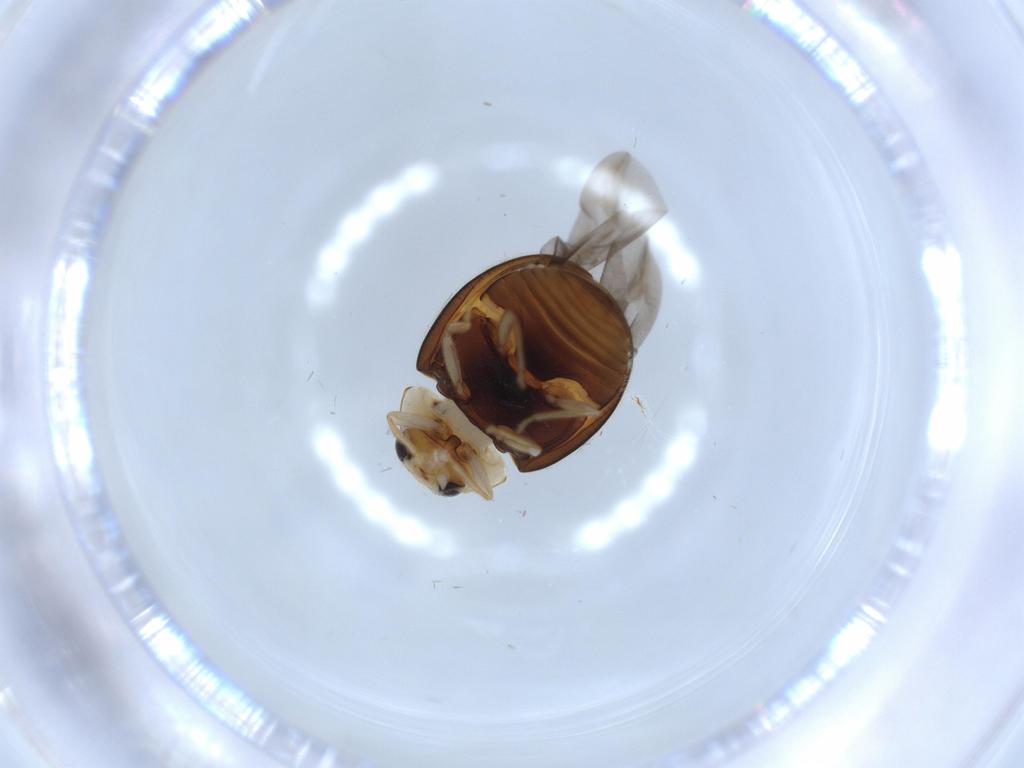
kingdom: Animalia
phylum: Arthropoda
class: Insecta
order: Coleoptera
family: Coccinellidae
